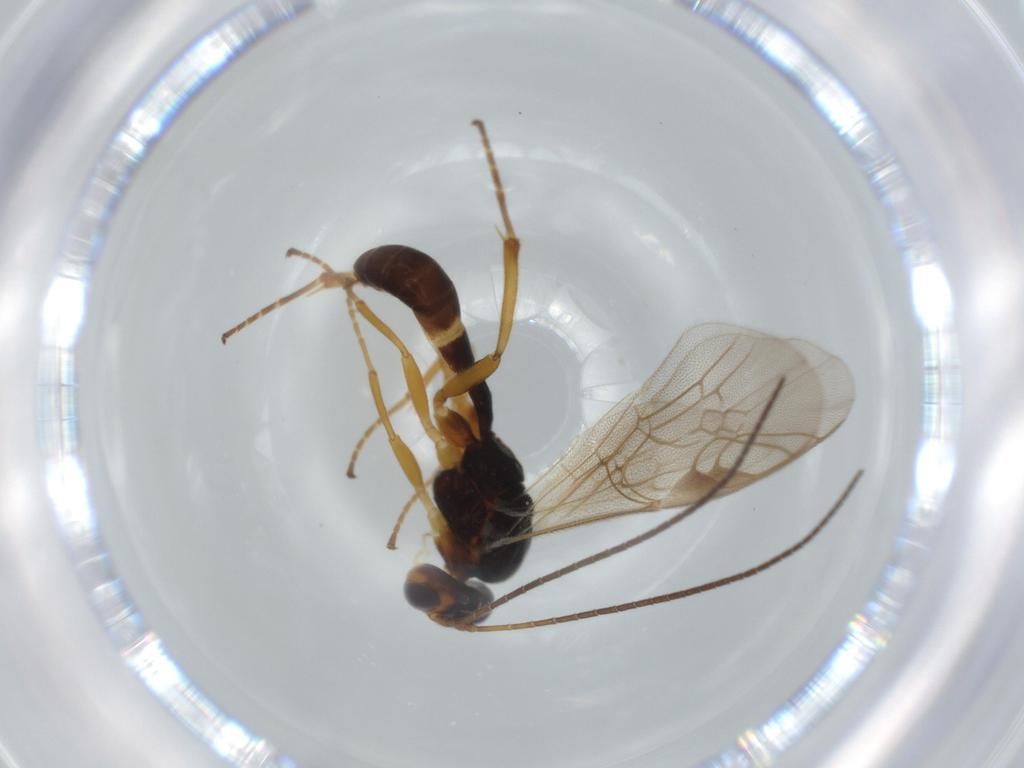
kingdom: Animalia
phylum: Arthropoda
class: Insecta
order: Hymenoptera
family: Ichneumonidae
